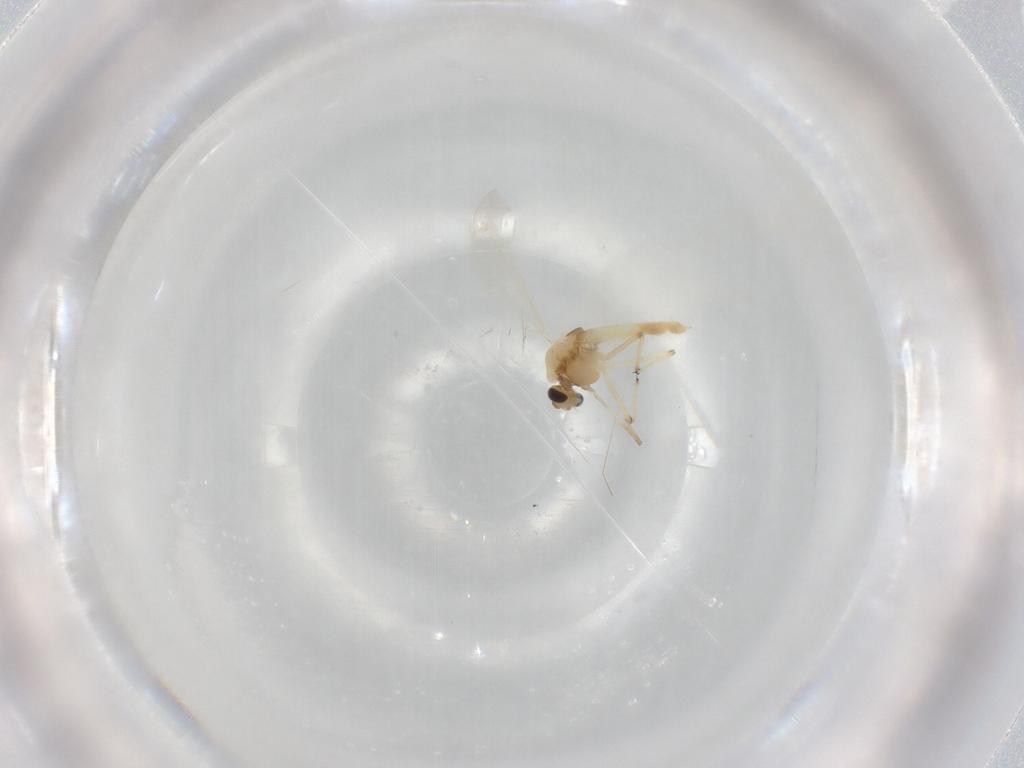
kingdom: Animalia
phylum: Arthropoda
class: Insecta
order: Diptera
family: Chironomidae
